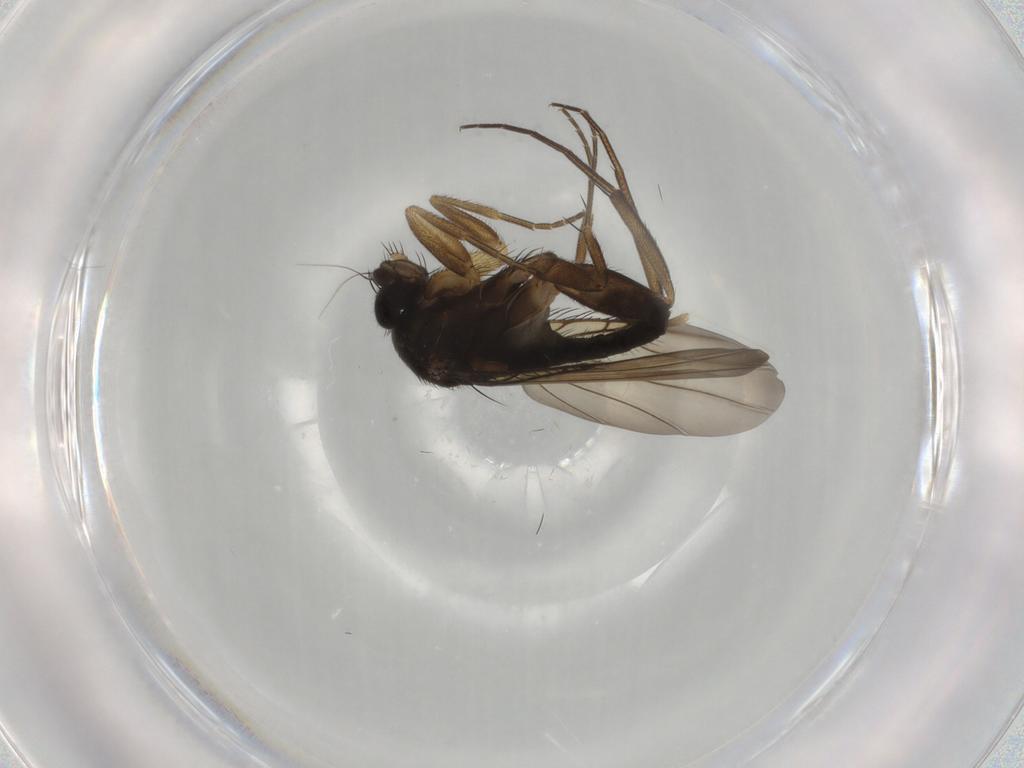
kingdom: Animalia
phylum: Arthropoda
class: Insecta
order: Diptera
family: Phoridae
